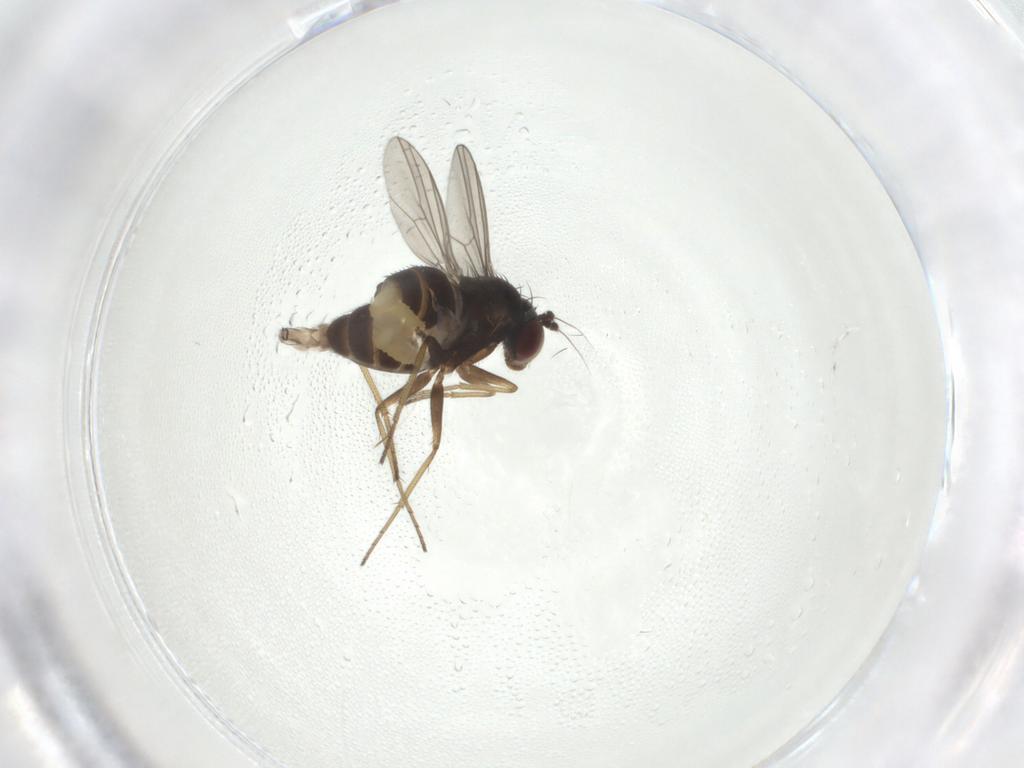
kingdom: Animalia
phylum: Arthropoda
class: Insecta
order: Diptera
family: Dolichopodidae
